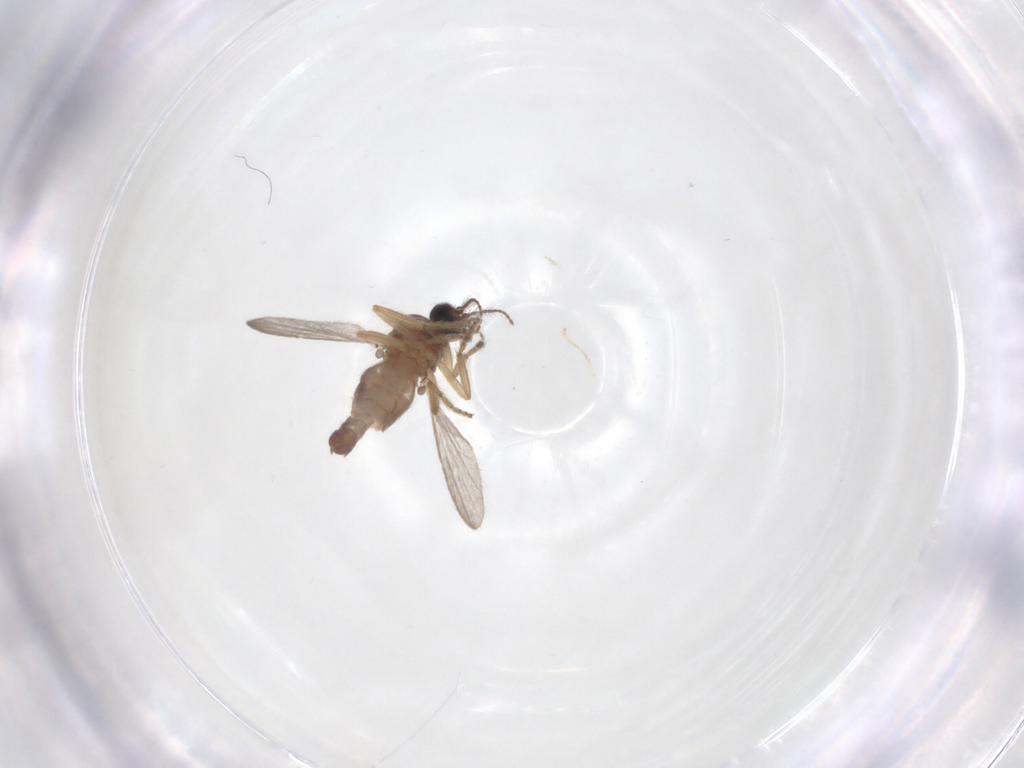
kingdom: Animalia
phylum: Arthropoda
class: Insecta
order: Diptera
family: Ceratopogonidae
